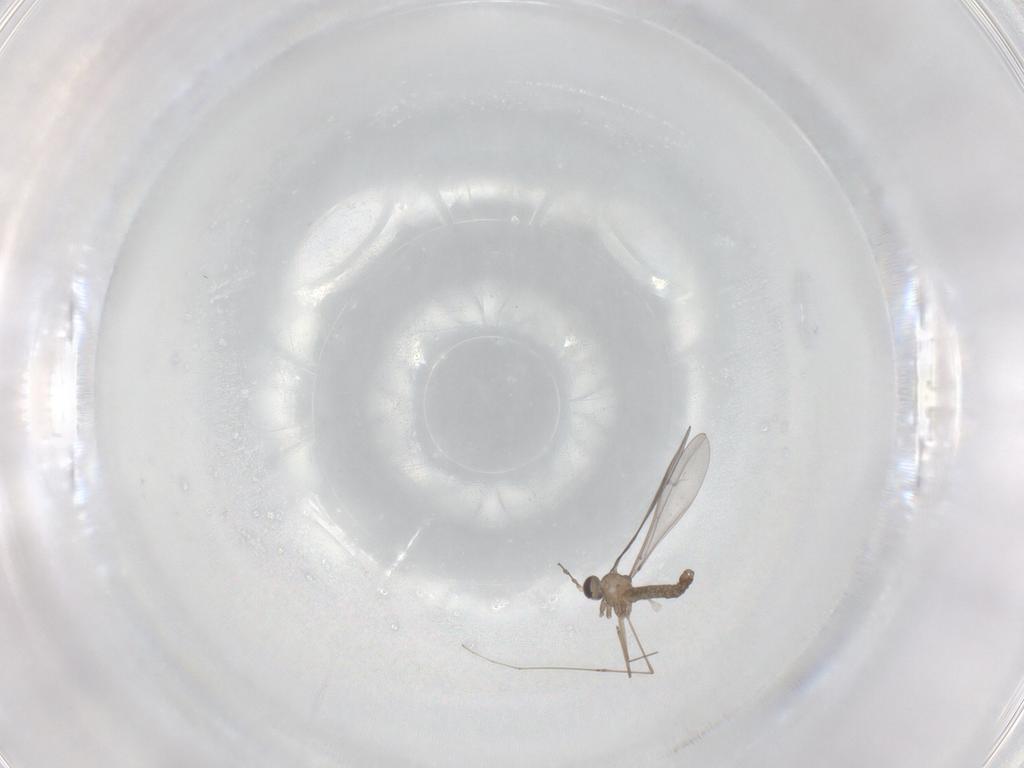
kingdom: Animalia
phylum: Arthropoda
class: Insecta
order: Diptera
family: Cecidomyiidae
